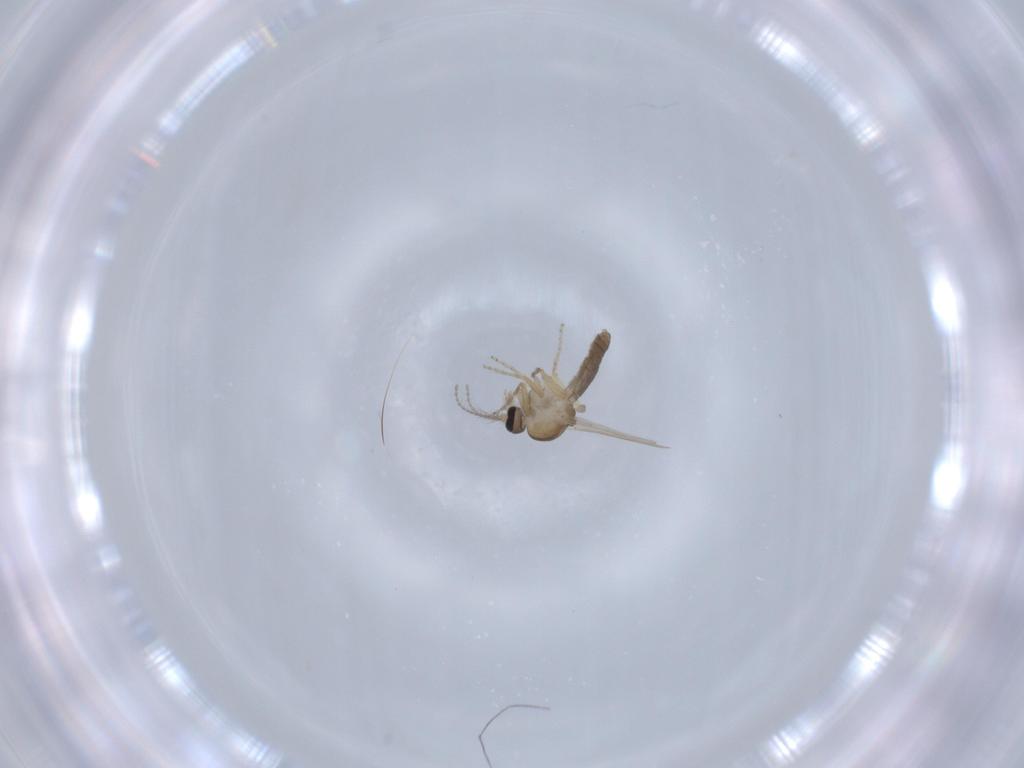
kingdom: Animalia
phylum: Arthropoda
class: Insecta
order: Diptera
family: Ceratopogonidae
